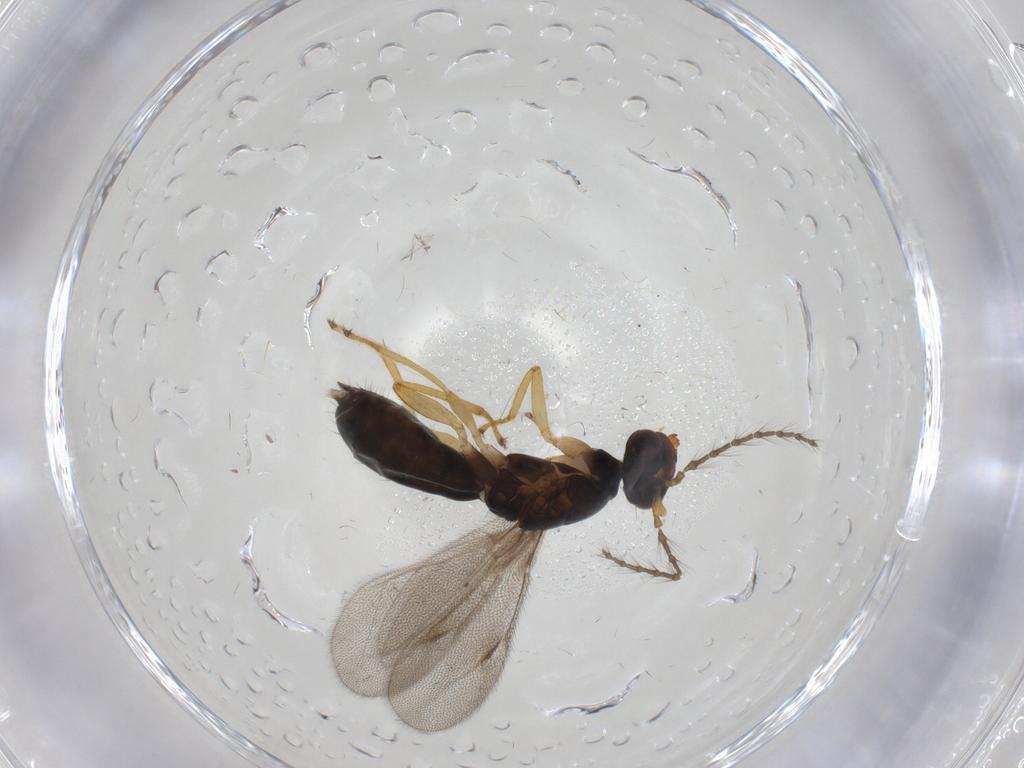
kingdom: Animalia
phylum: Arthropoda
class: Insecta
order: Hymenoptera
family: Eulophidae
